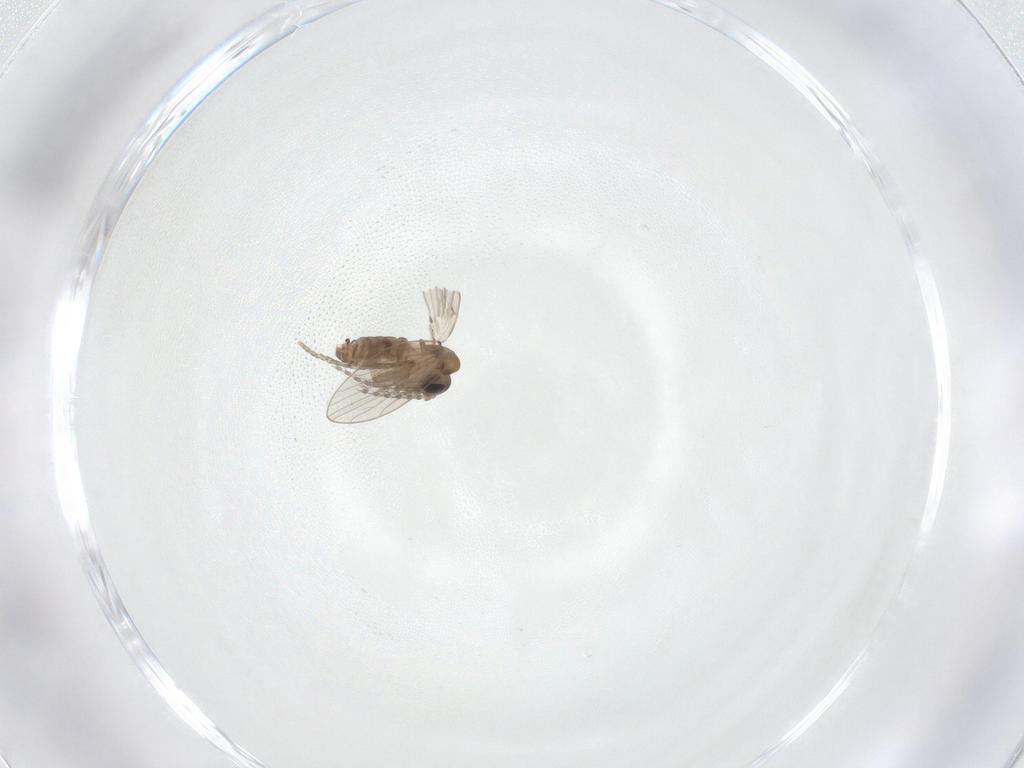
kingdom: Animalia
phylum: Arthropoda
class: Insecta
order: Diptera
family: Psychodidae
